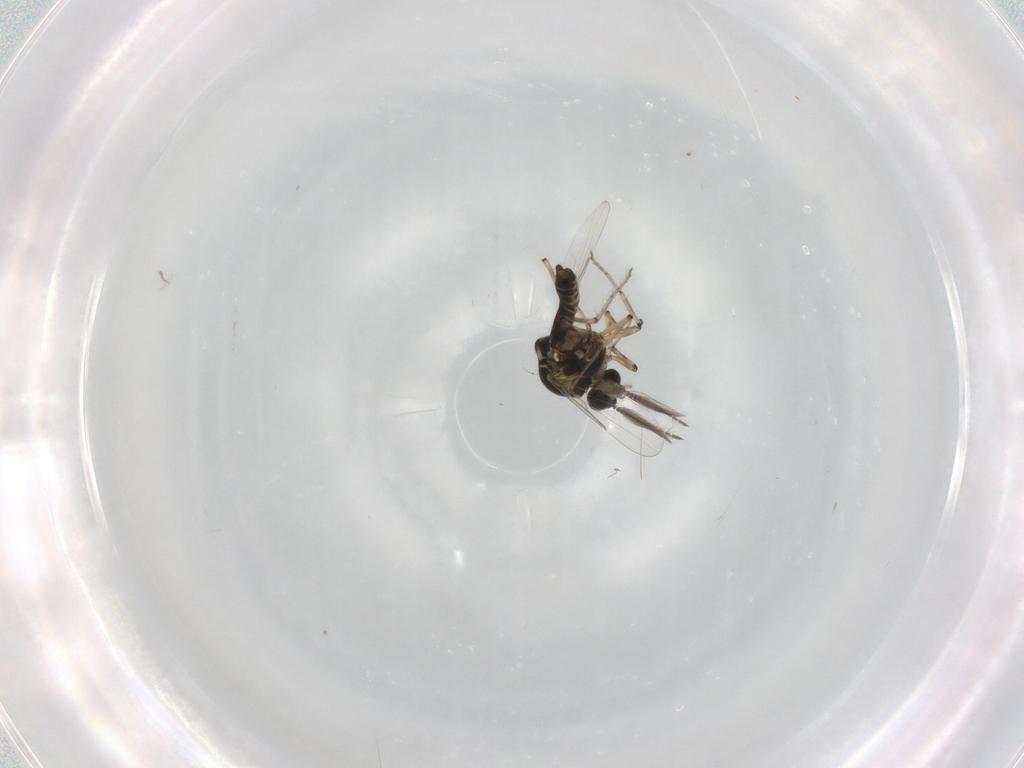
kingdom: Animalia
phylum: Arthropoda
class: Insecta
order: Diptera
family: Ceratopogonidae
